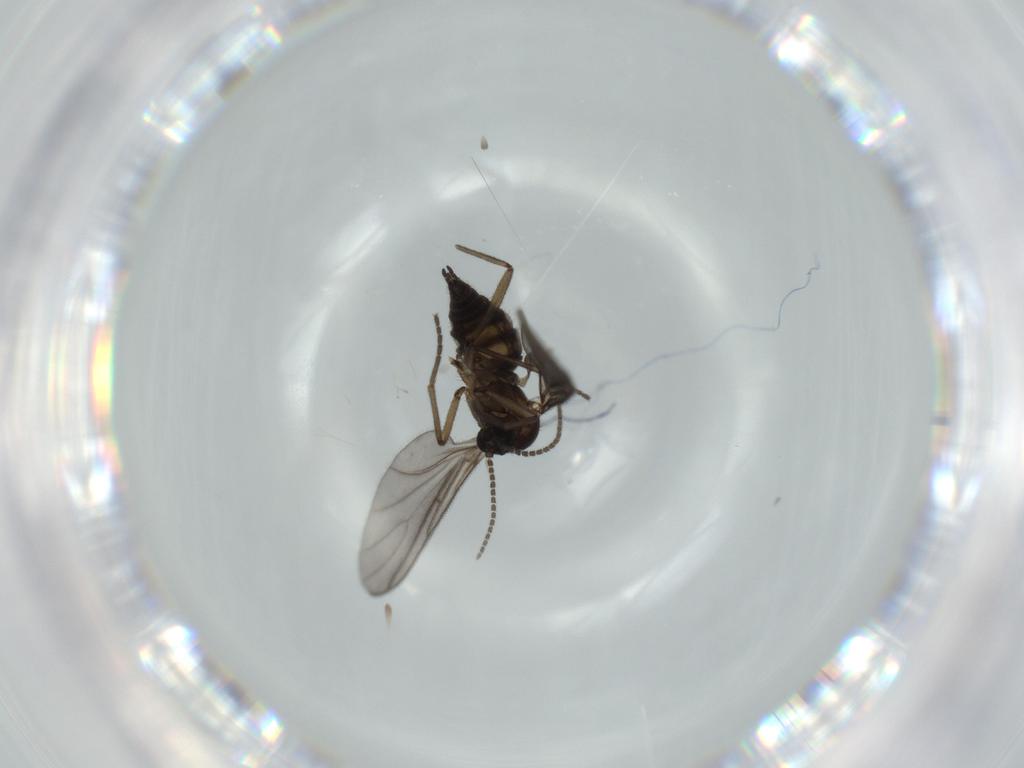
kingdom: Animalia
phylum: Arthropoda
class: Insecta
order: Diptera
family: Sciaridae
